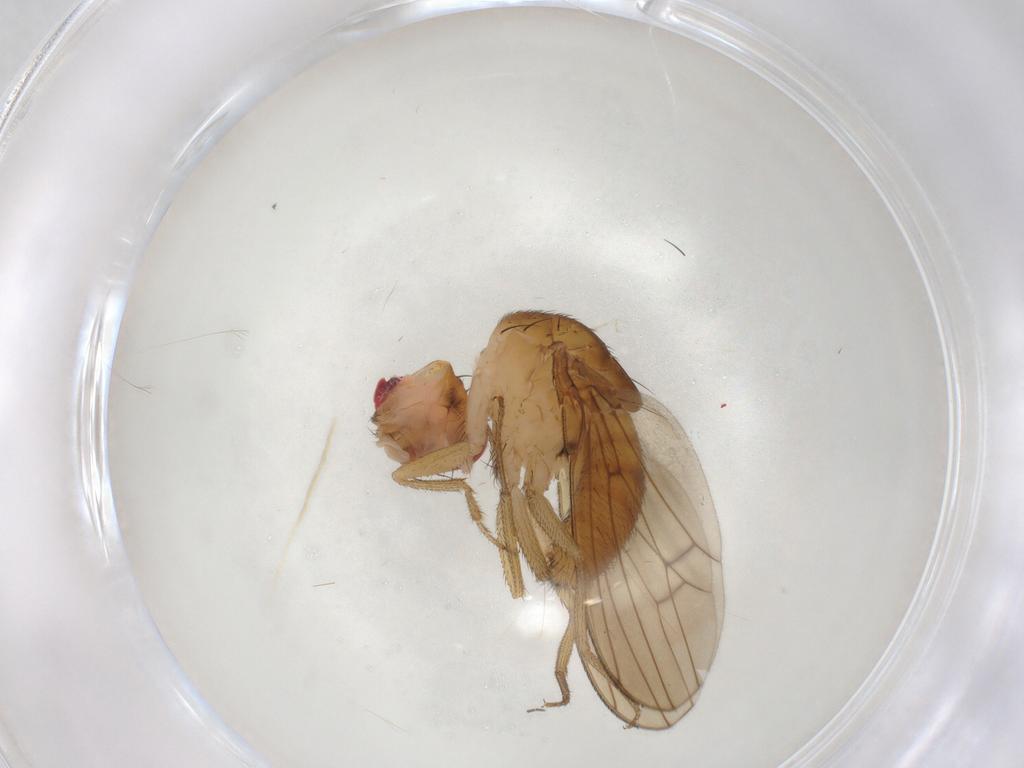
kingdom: Animalia
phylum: Arthropoda
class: Insecta
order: Diptera
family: Drosophilidae
